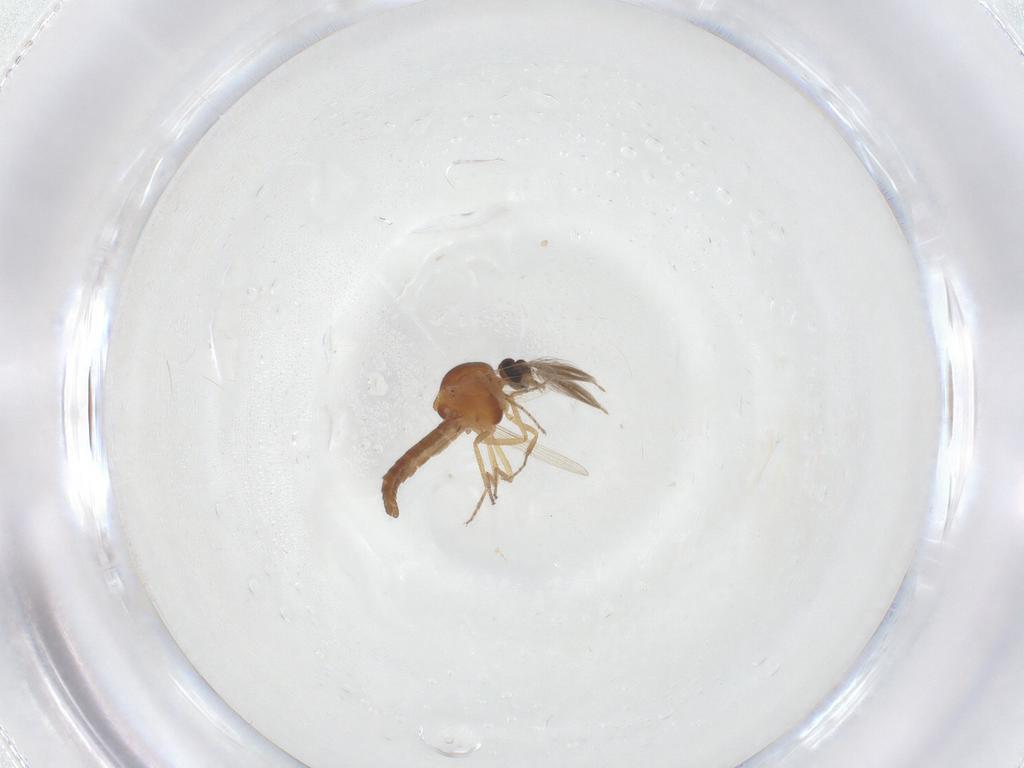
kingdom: Animalia
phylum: Arthropoda
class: Insecta
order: Diptera
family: Ceratopogonidae
